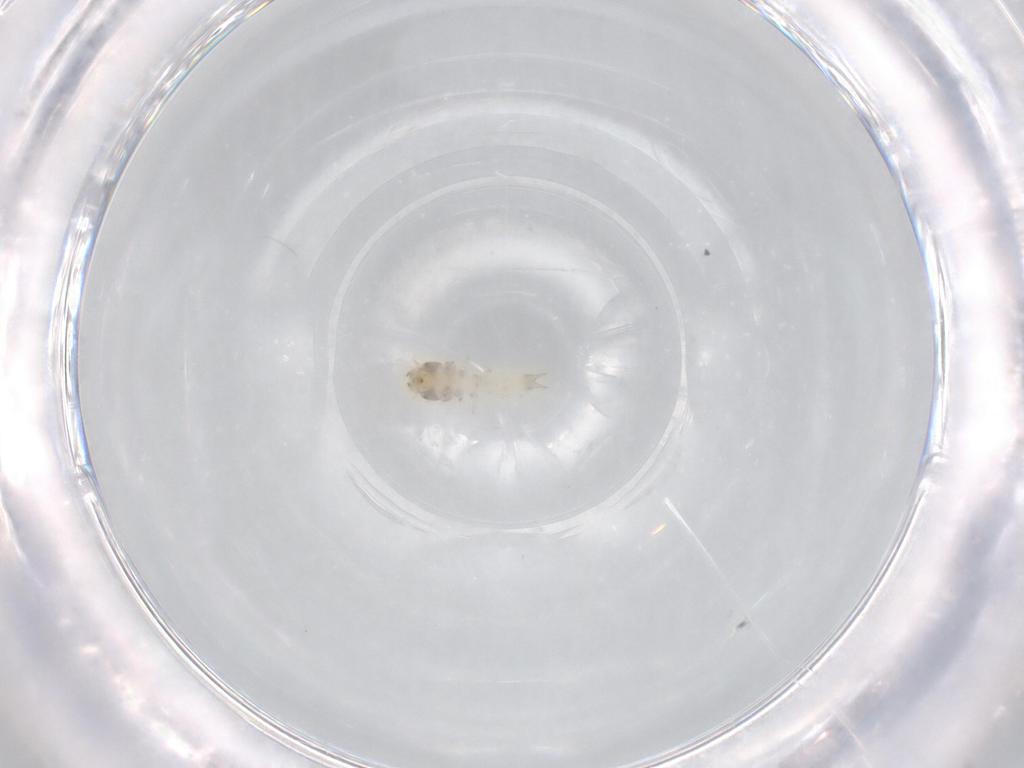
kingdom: Animalia
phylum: Arthropoda
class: Insecta
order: Coleoptera
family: Nitidulidae
